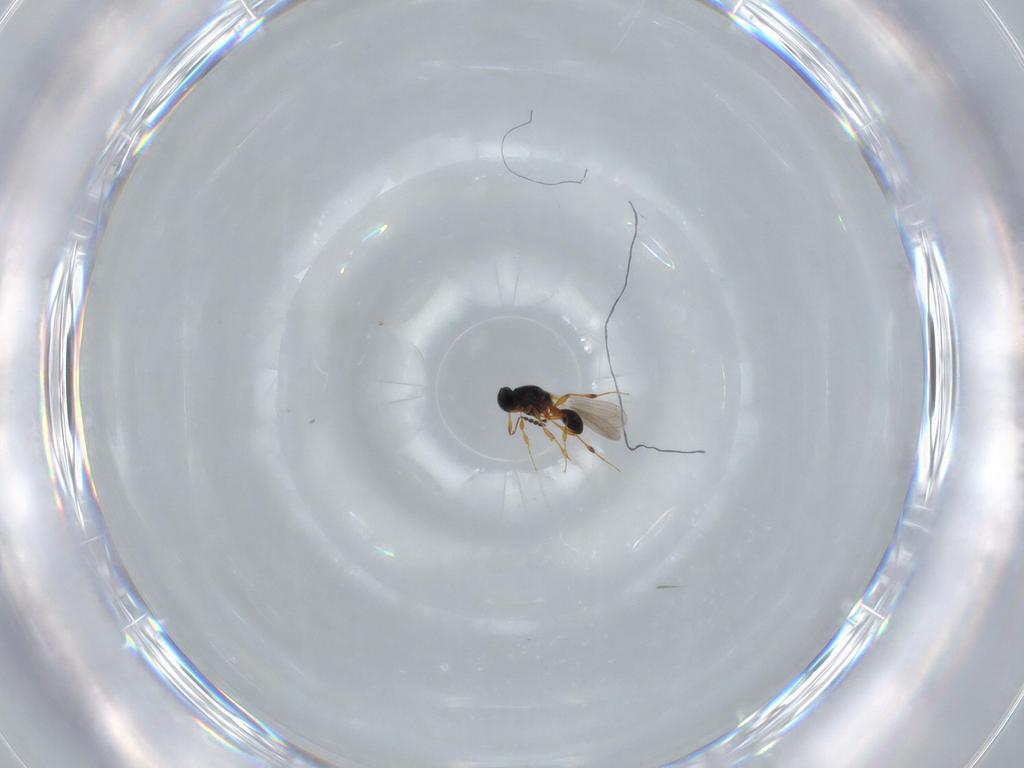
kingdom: Animalia
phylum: Arthropoda
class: Insecta
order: Hymenoptera
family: Platygastridae
